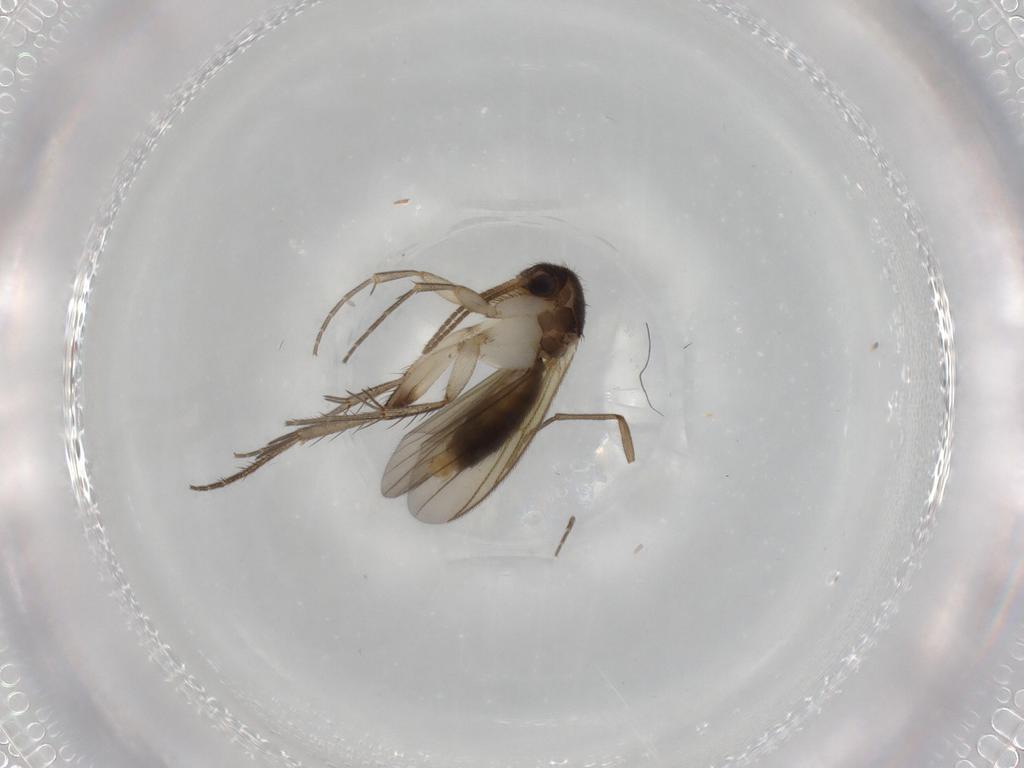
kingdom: Animalia
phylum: Arthropoda
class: Insecta
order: Diptera
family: Sciaridae
